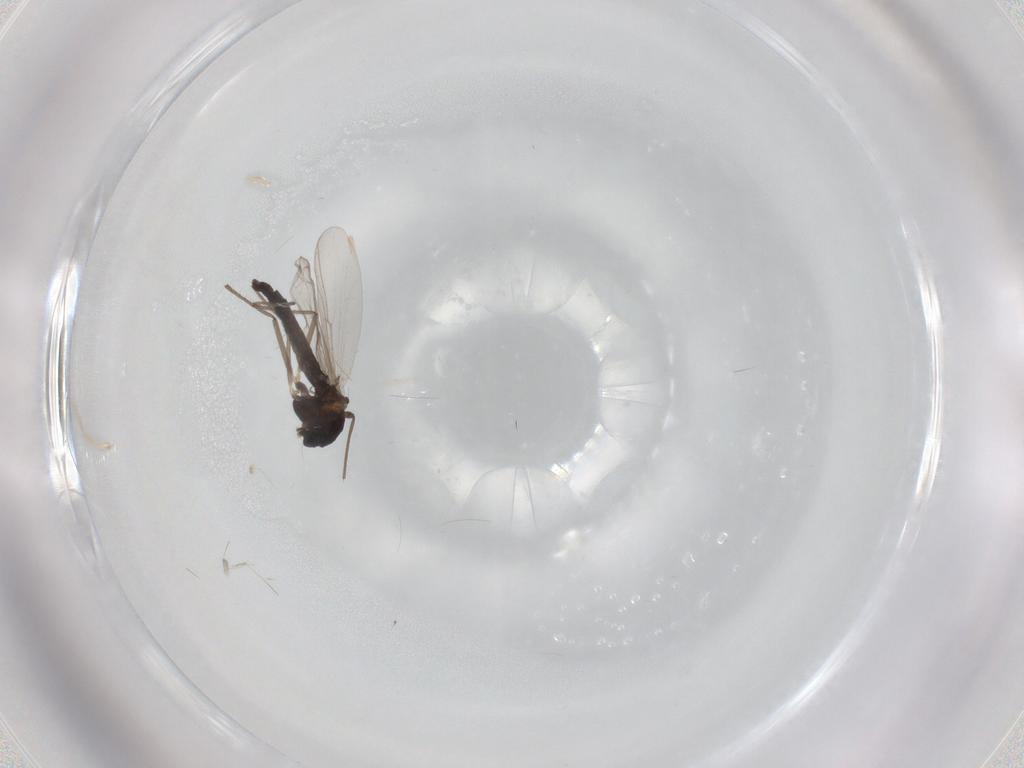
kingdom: Animalia
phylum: Arthropoda
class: Insecta
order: Diptera
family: Chironomidae
